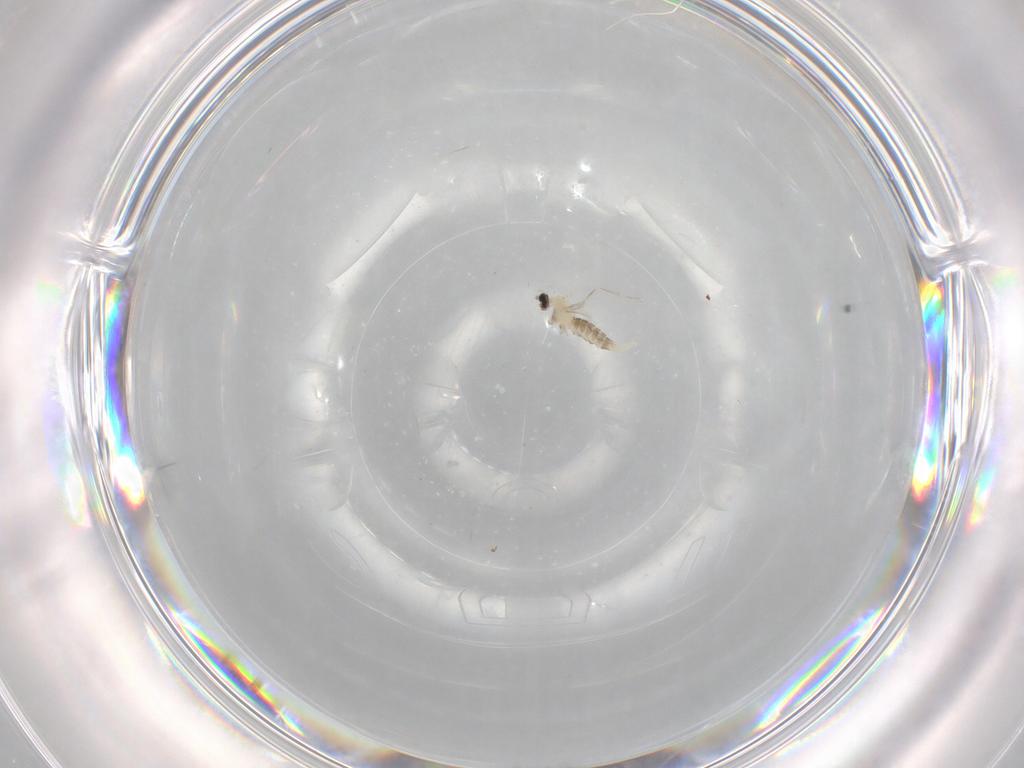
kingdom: Animalia
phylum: Arthropoda
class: Insecta
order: Diptera
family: Cecidomyiidae
